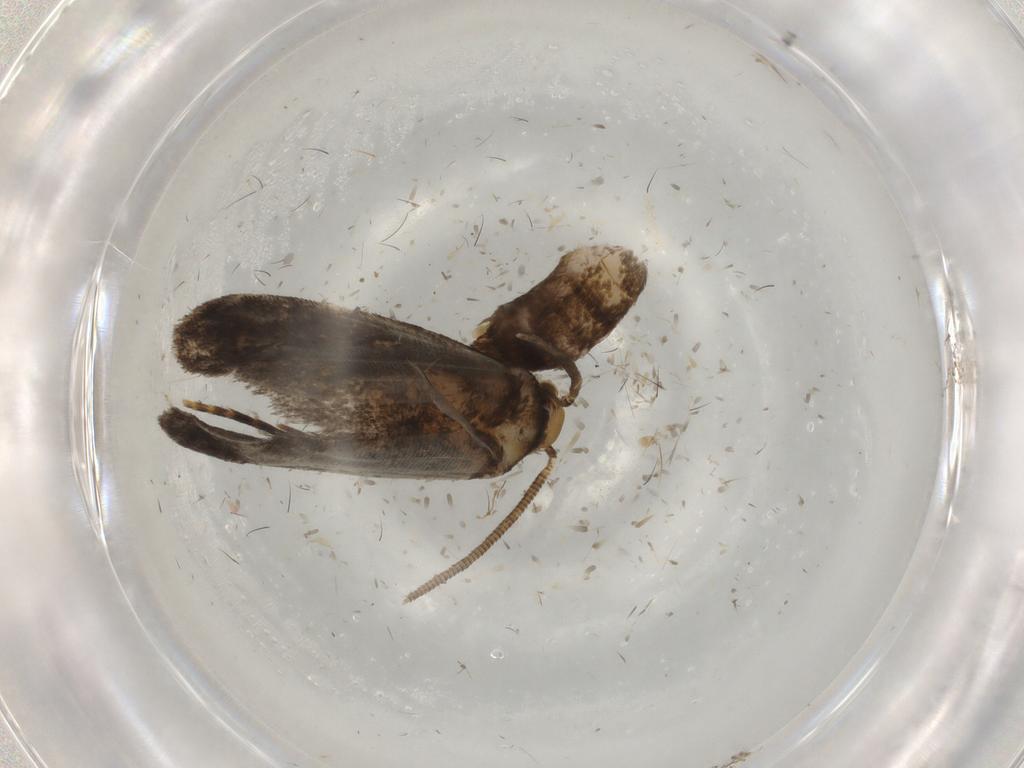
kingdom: Animalia
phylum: Arthropoda
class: Insecta
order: Lepidoptera
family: Dryadaulidae
